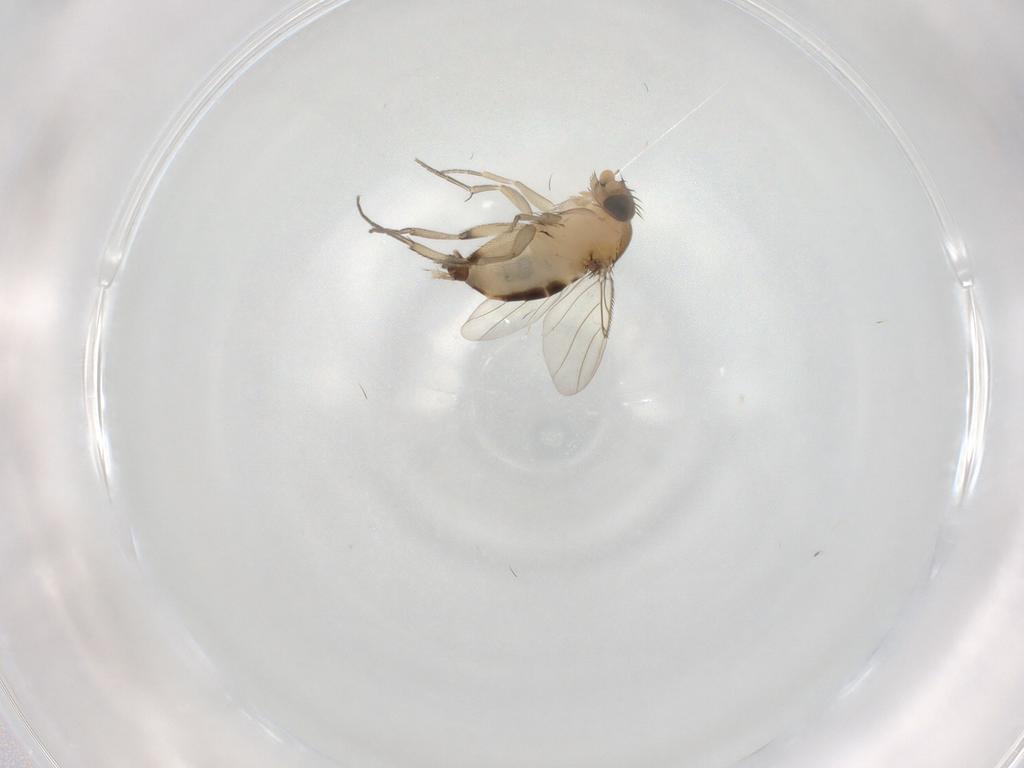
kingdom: Animalia
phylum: Arthropoda
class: Insecta
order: Diptera
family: Phoridae
